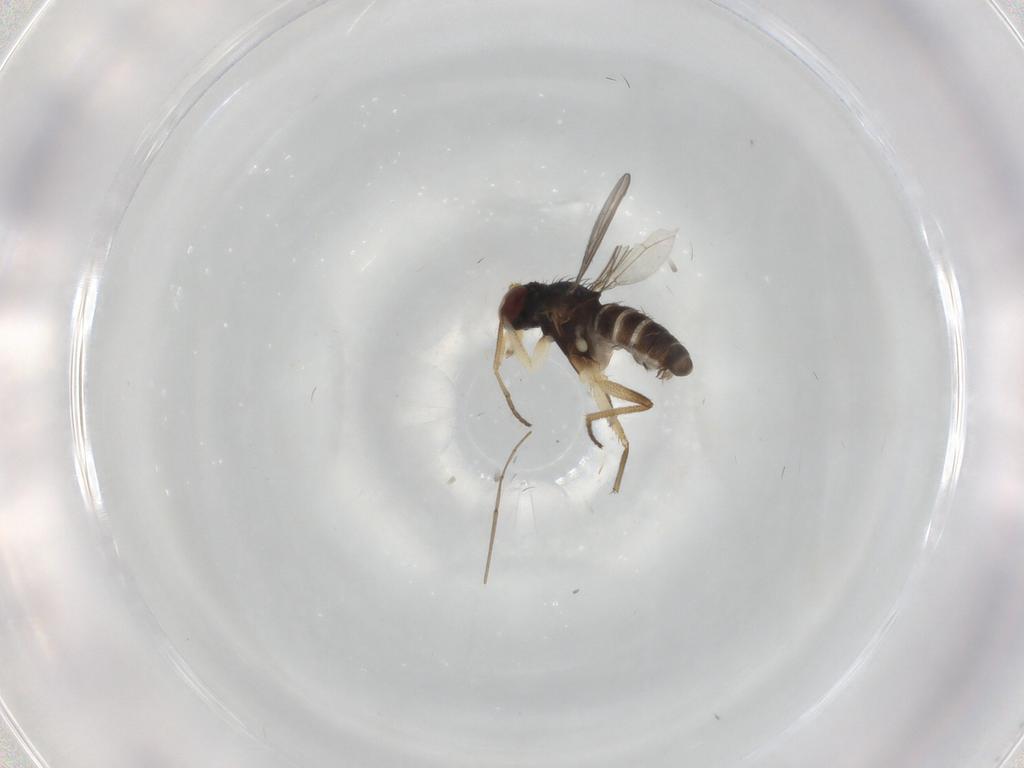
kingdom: Animalia
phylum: Arthropoda
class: Insecta
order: Diptera
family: Dolichopodidae
